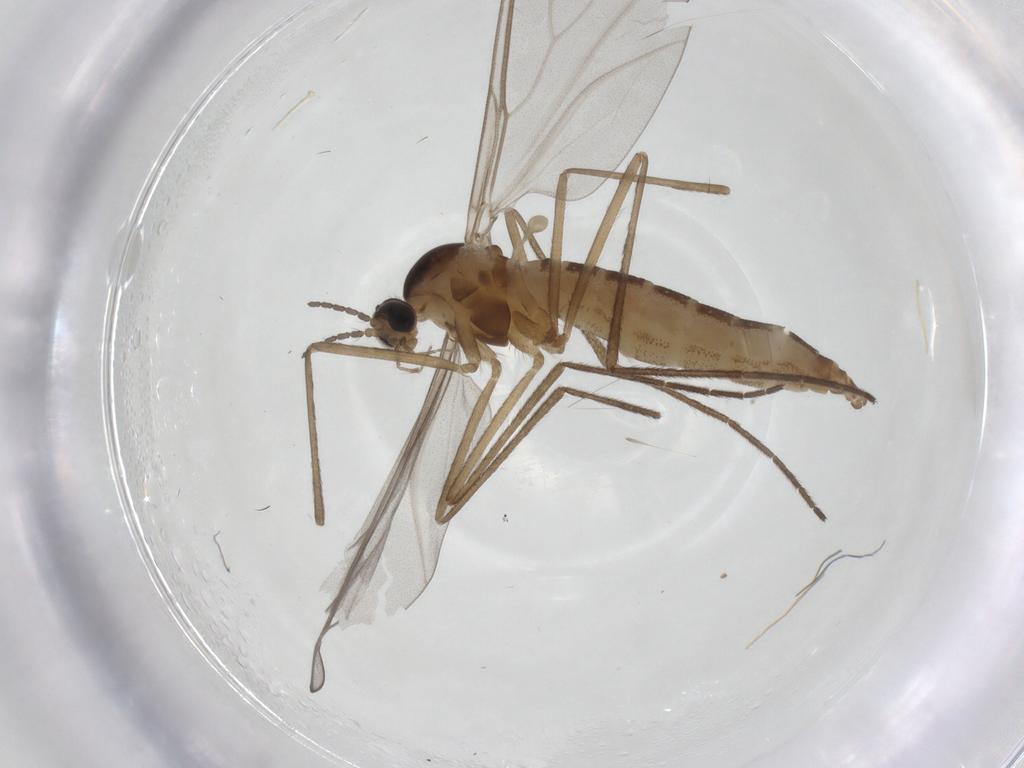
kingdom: Animalia
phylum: Arthropoda
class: Insecta
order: Diptera
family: Cecidomyiidae
